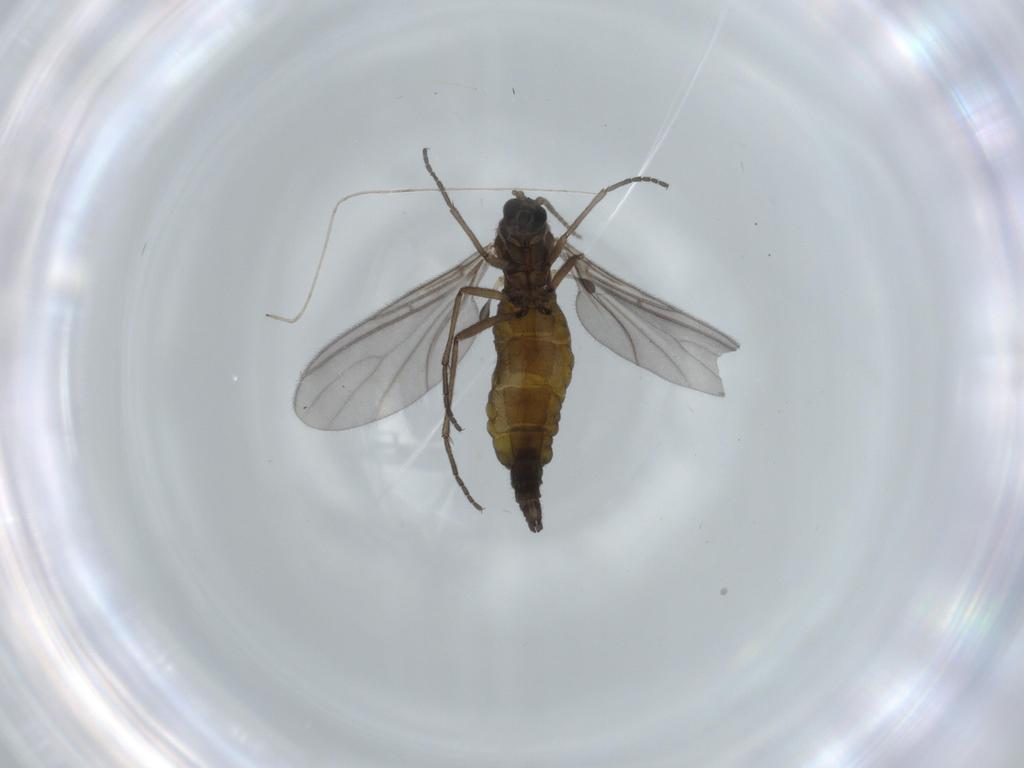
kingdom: Animalia
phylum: Arthropoda
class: Insecta
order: Diptera
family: Sciaridae
